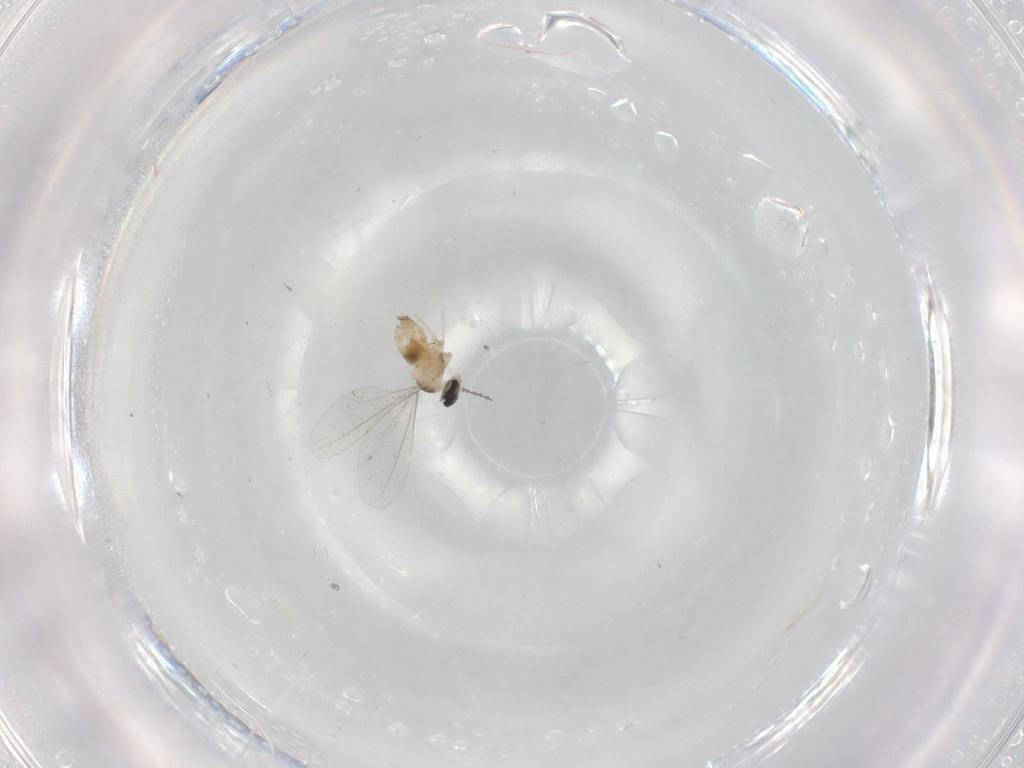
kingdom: Animalia
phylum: Arthropoda
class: Insecta
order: Diptera
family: Cecidomyiidae
